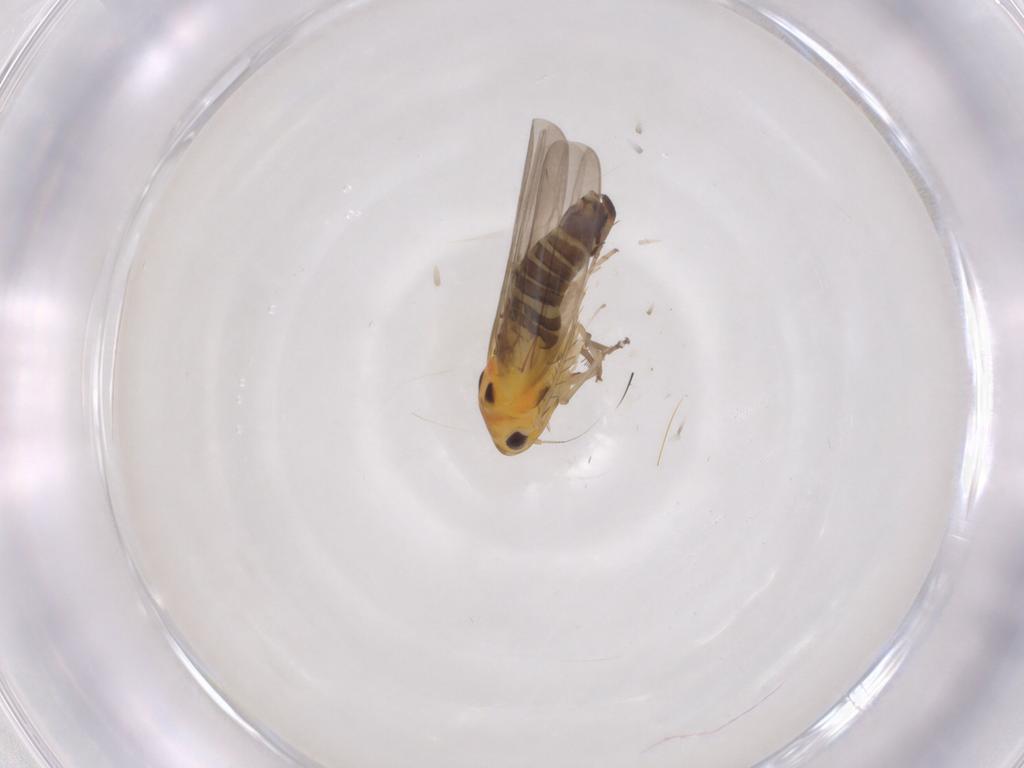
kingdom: Animalia
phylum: Arthropoda
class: Insecta
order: Hemiptera
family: Cicadellidae
